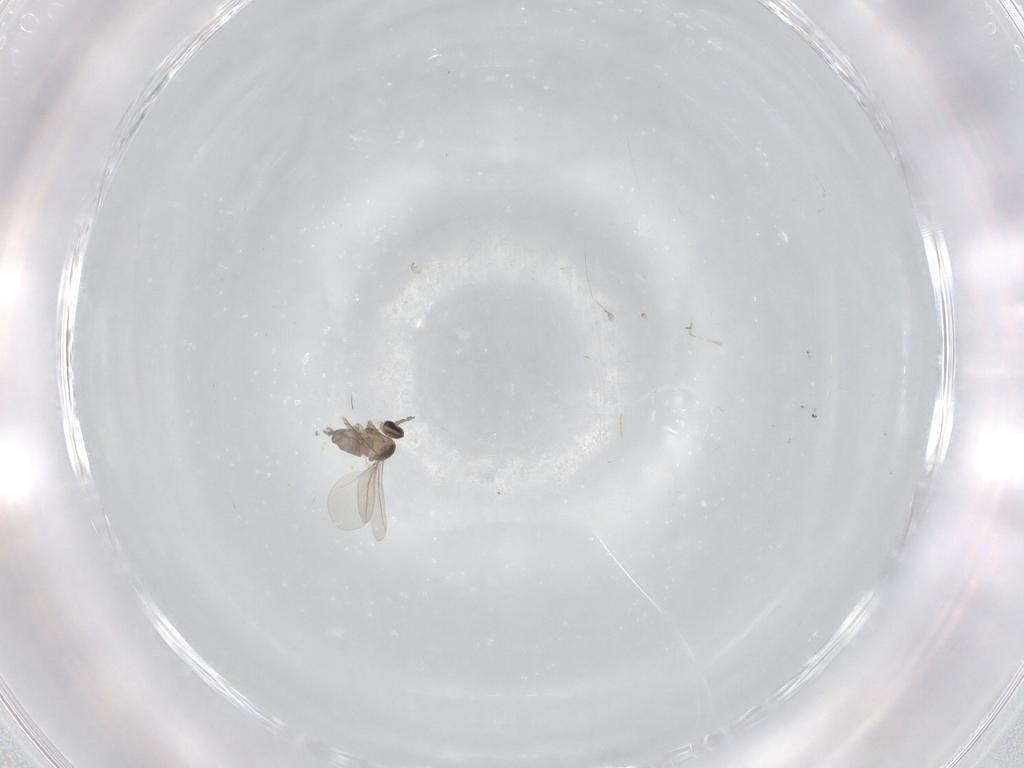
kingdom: Animalia
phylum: Arthropoda
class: Insecta
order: Diptera
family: Cecidomyiidae
